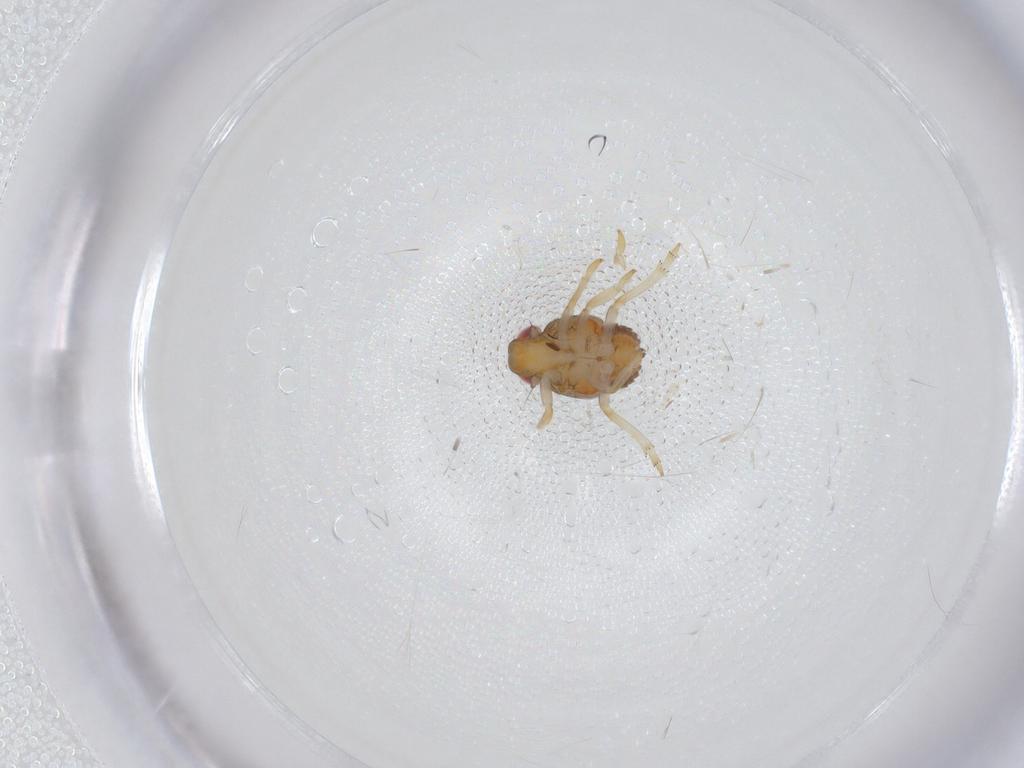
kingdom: Animalia
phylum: Arthropoda
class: Insecta
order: Hemiptera
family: Issidae
